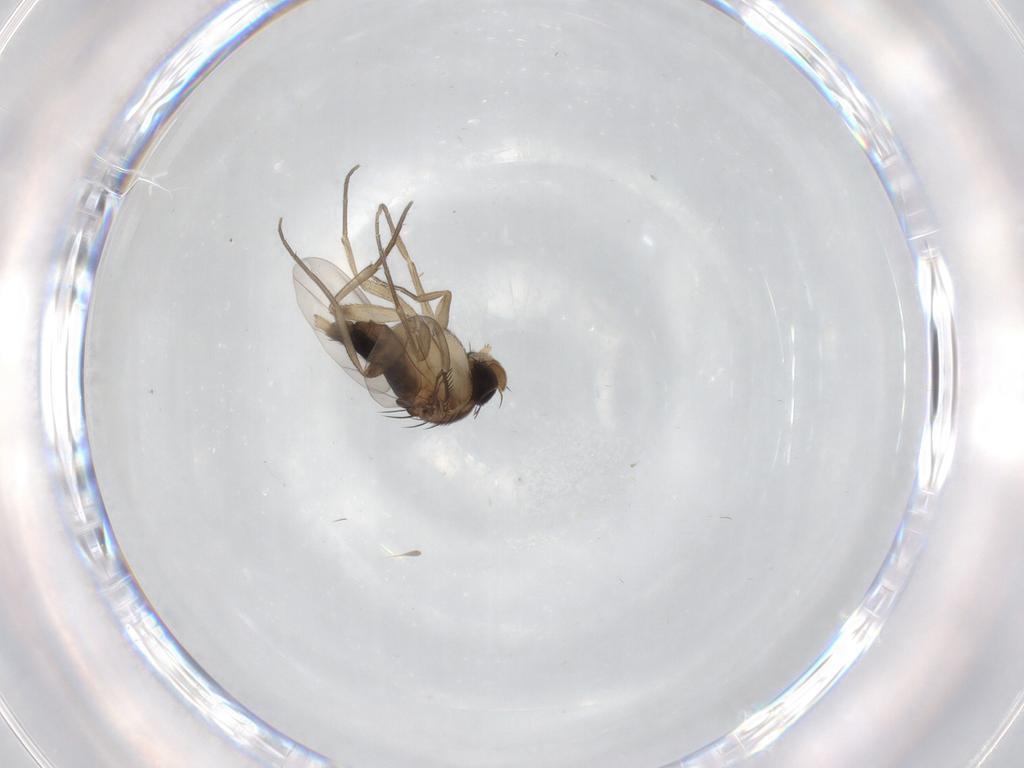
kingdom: Animalia
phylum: Arthropoda
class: Insecta
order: Diptera
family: Phoridae
